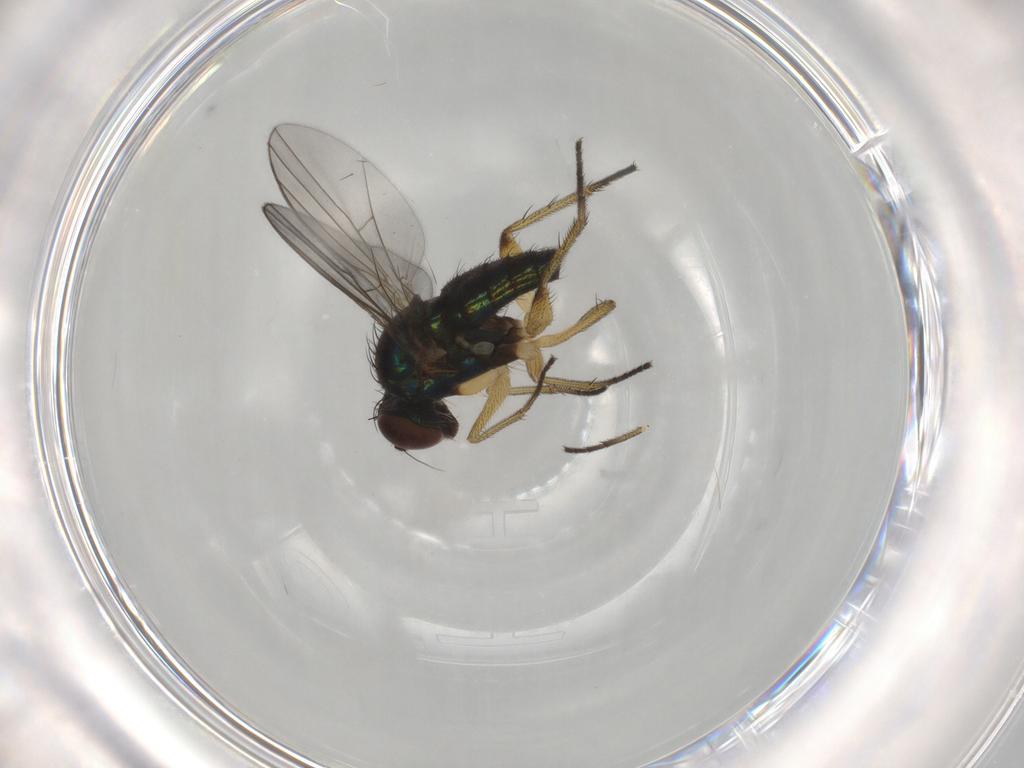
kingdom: Animalia
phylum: Arthropoda
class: Insecta
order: Diptera
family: Dolichopodidae
